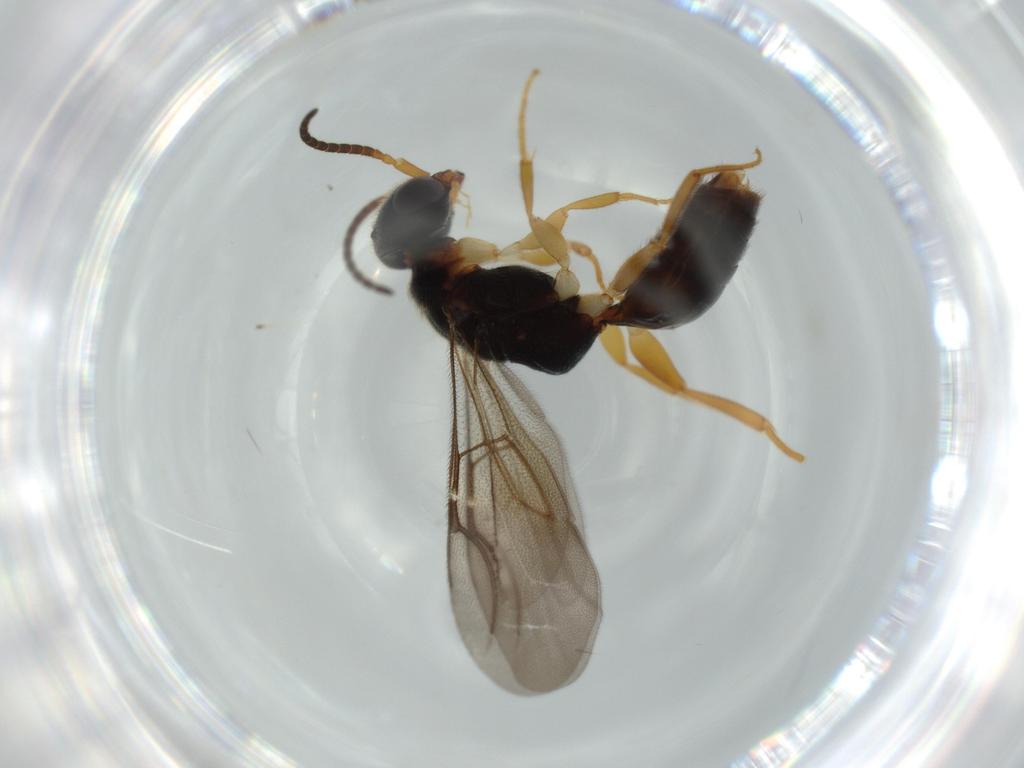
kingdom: Animalia
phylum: Arthropoda
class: Insecta
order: Hymenoptera
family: Bethylidae
